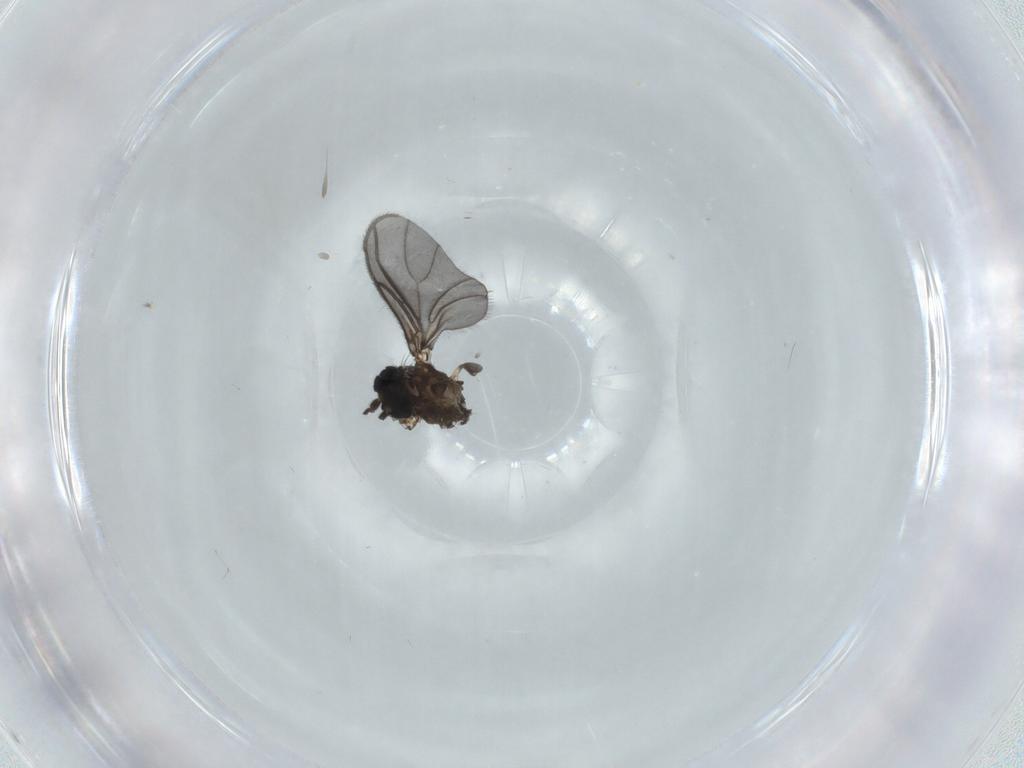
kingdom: Animalia
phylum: Arthropoda
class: Insecta
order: Diptera
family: Sciaridae
